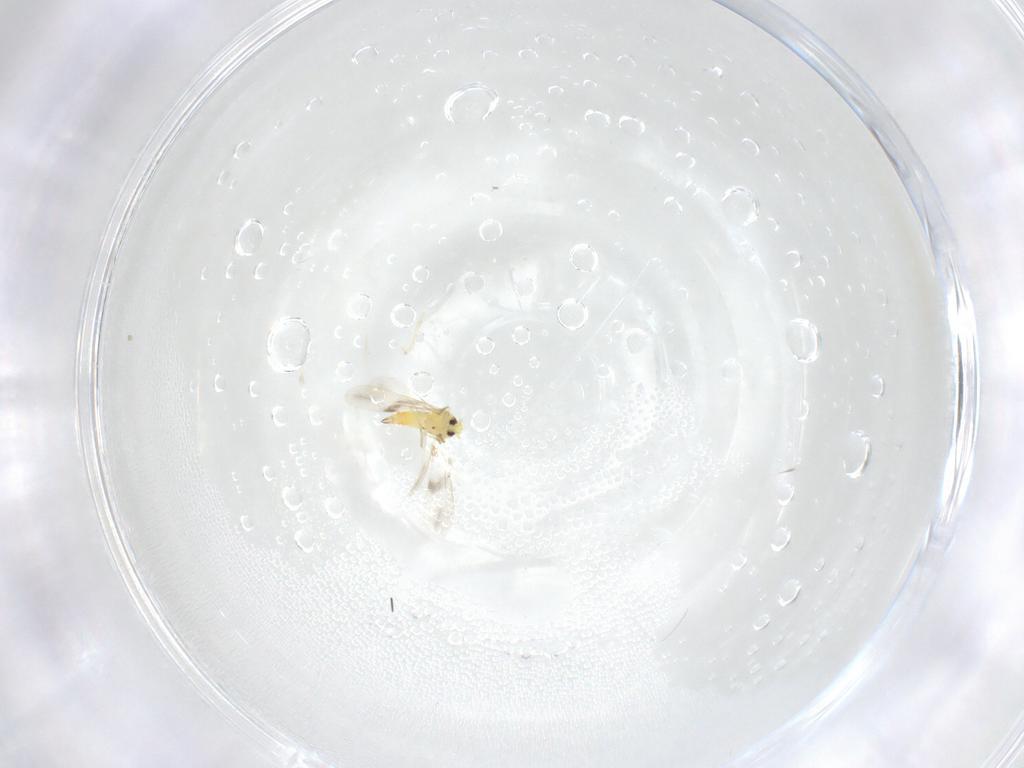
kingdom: Animalia
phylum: Arthropoda
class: Insecta
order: Hemiptera
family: Aleyrodidae
